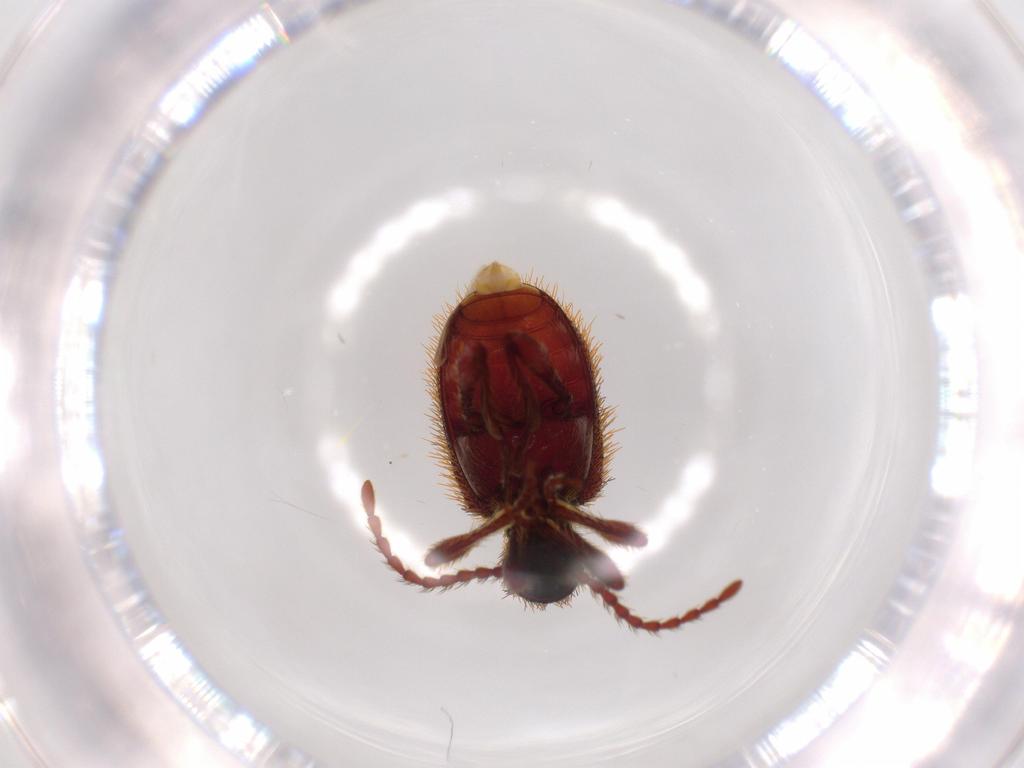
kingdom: Animalia
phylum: Arthropoda
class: Insecta
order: Coleoptera
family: Ptinidae
